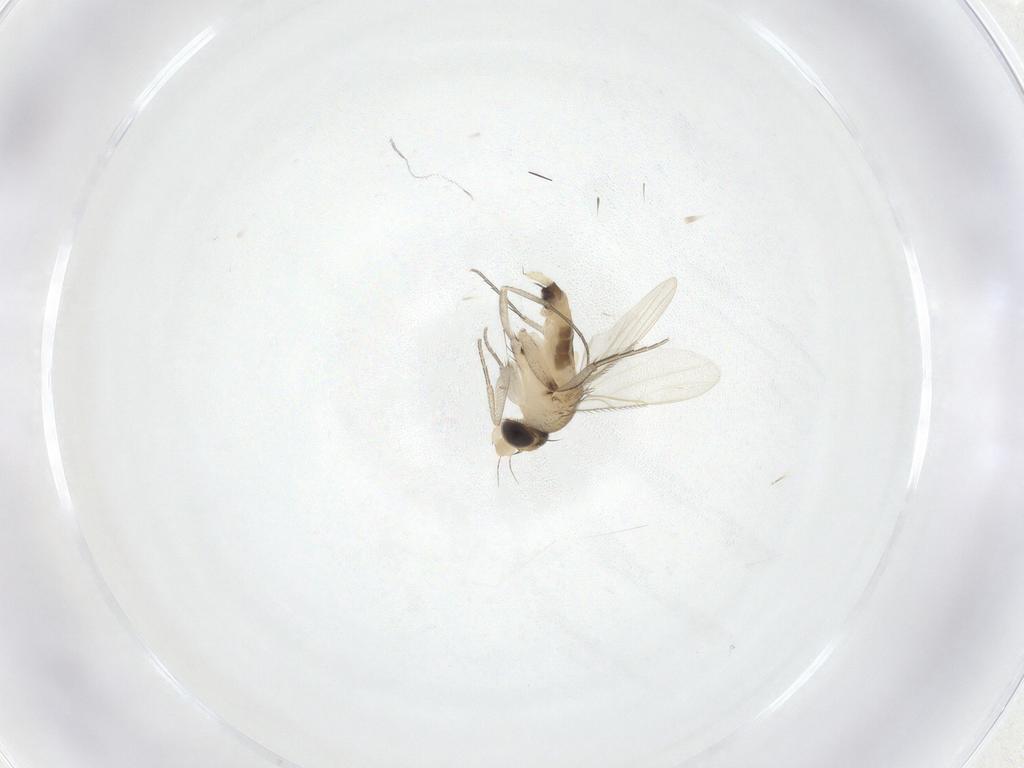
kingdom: Animalia
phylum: Arthropoda
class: Insecta
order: Diptera
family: Phoridae
